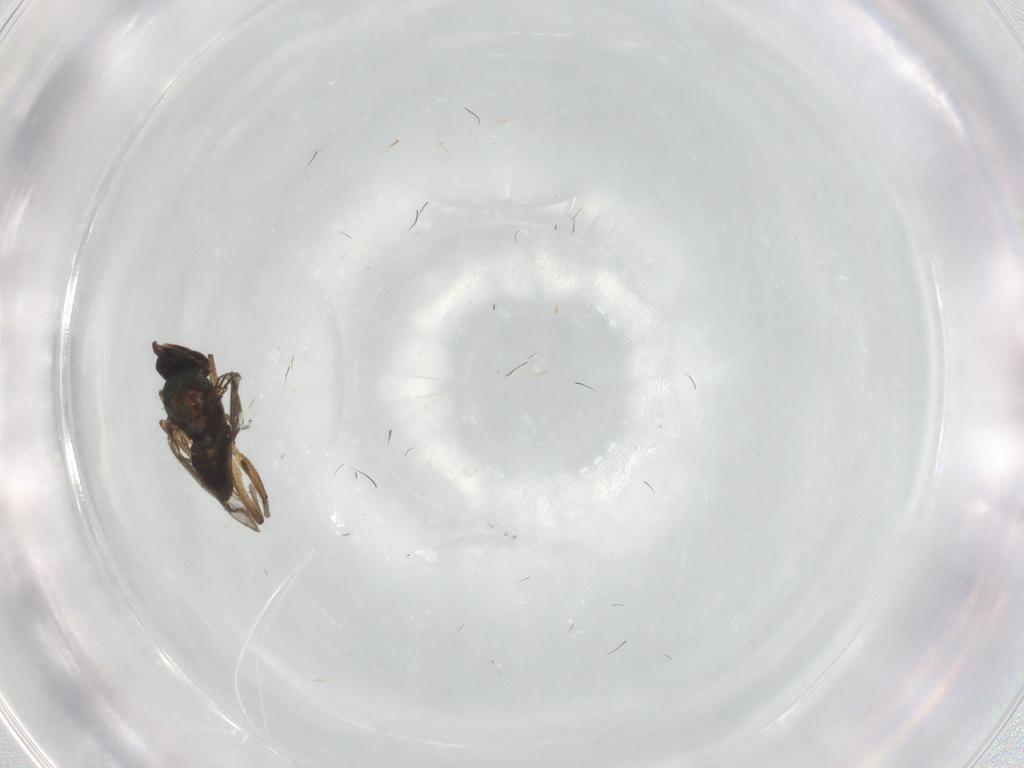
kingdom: Animalia
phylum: Arthropoda
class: Insecta
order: Diptera
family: Dolichopodidae
